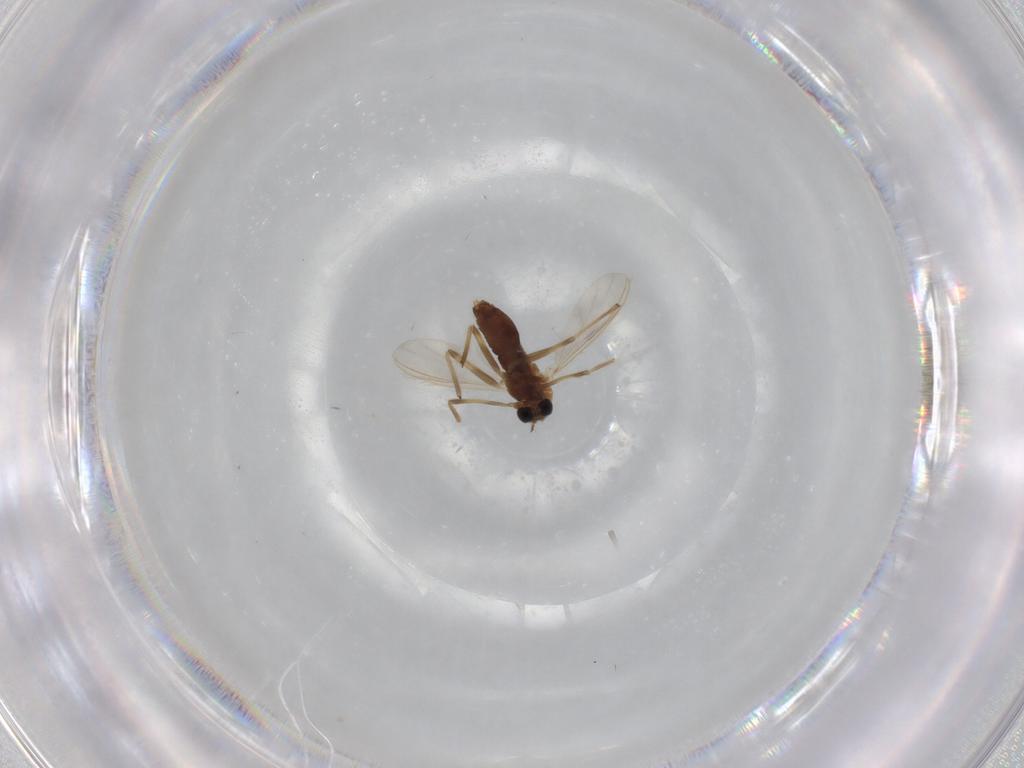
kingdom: Animalia
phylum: Arthropoda
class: Insecta
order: Diptera
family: Chironomidae
